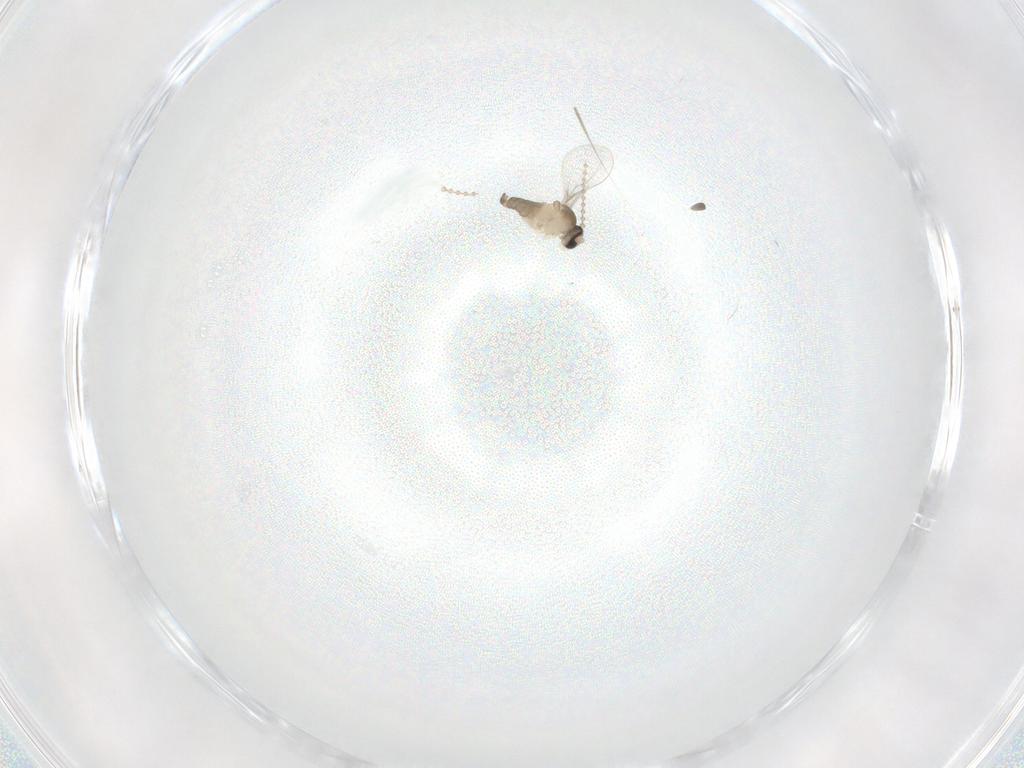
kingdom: Animalia
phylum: Arthropoda
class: Insecta
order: Diptera
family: Cecidomyiidae
